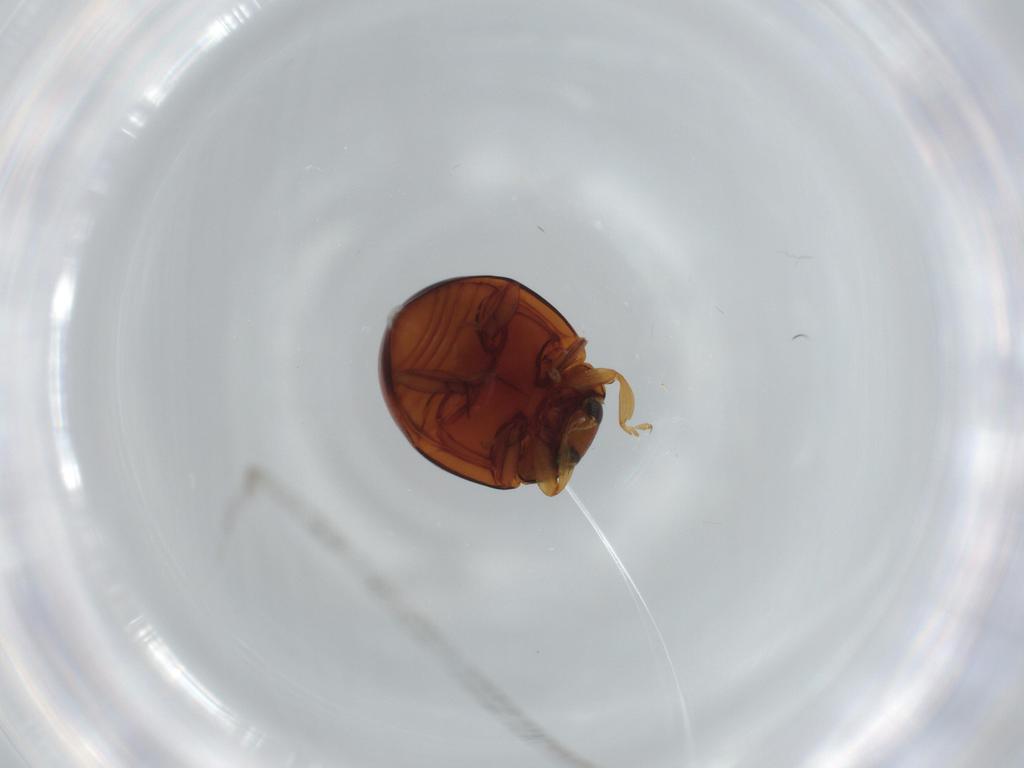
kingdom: Animalia
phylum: Arthropoda
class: Insecta
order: Coleoptera
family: Coccinellidae
